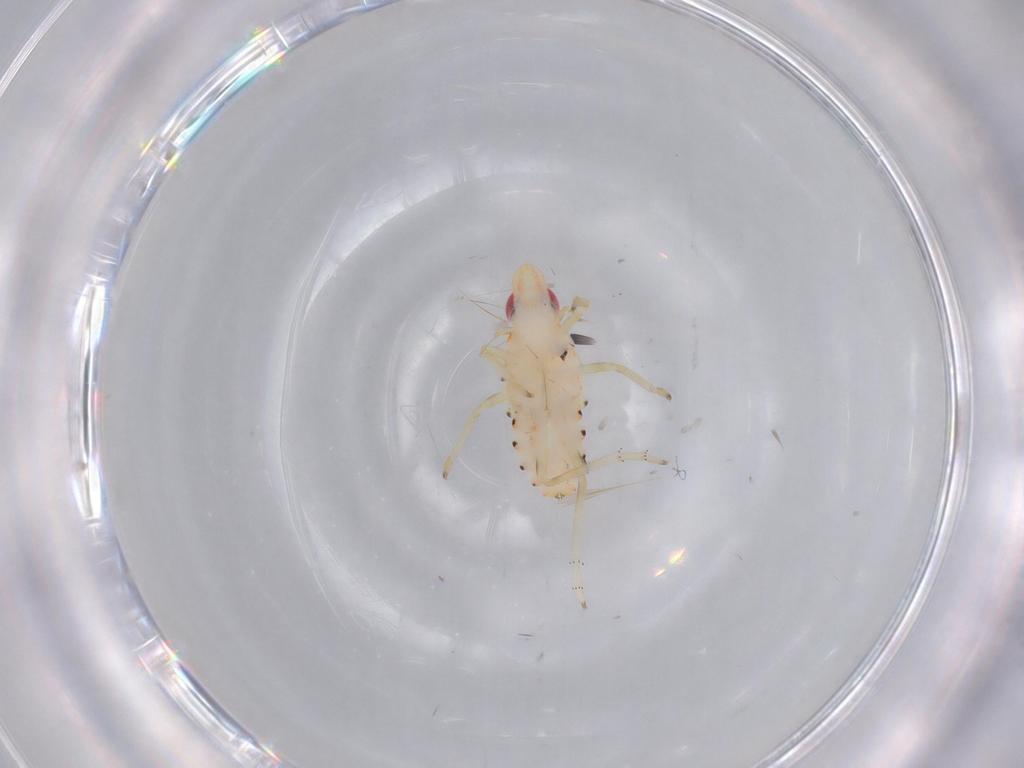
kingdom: Animalia
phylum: Arthropoda
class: Insecta
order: Hemiptera
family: Tropiduchidae
